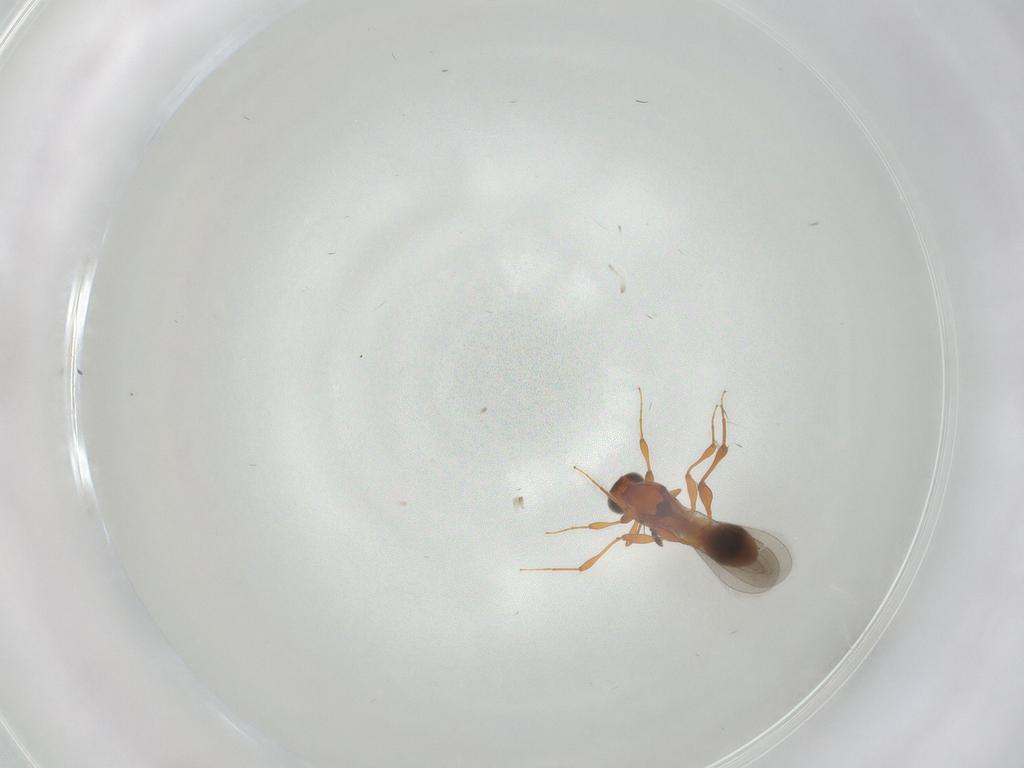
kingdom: Animalia
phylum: Arthropoda
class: Insecta
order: Hymenoptera
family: Platygastridae
